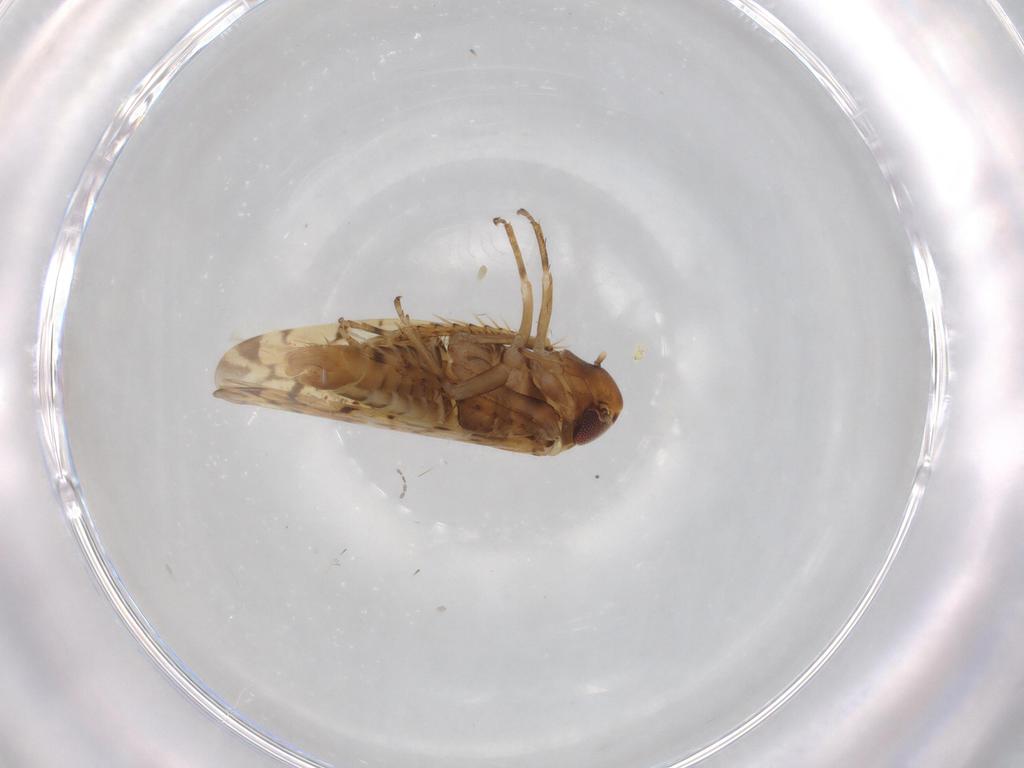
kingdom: Animalia
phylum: Arthropoda
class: Insecta
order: Hemiptera
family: Cicadellidae
